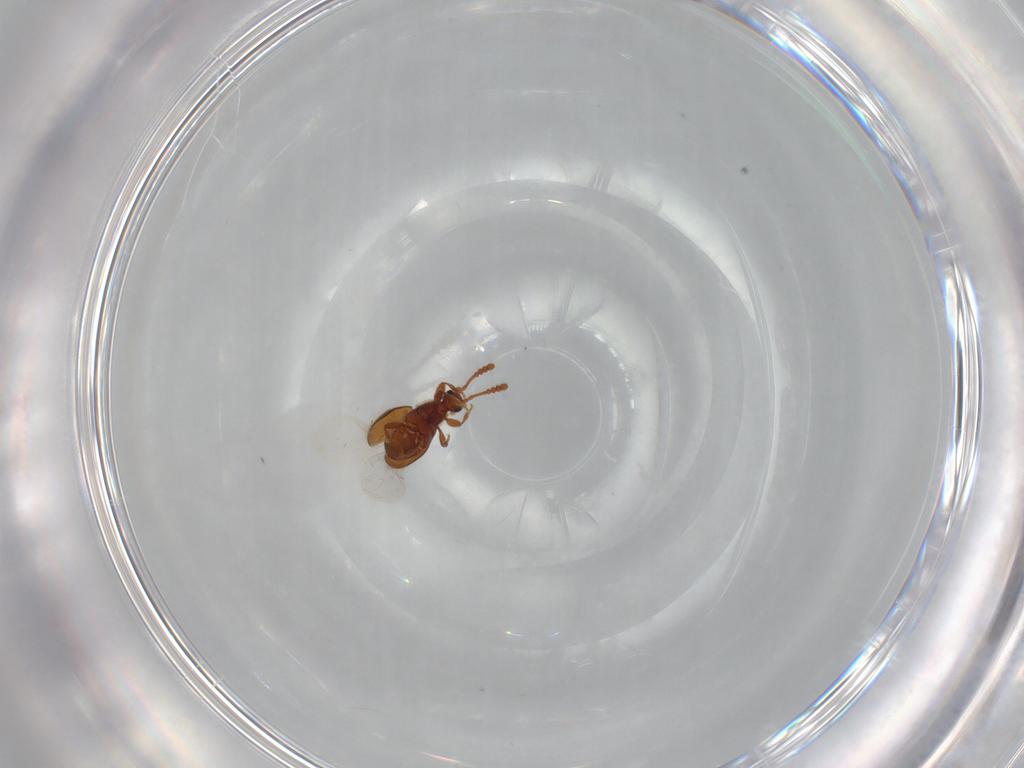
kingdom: Animalia
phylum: Arthropoda
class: Insecta
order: Coleoptera
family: Staphylinidae
